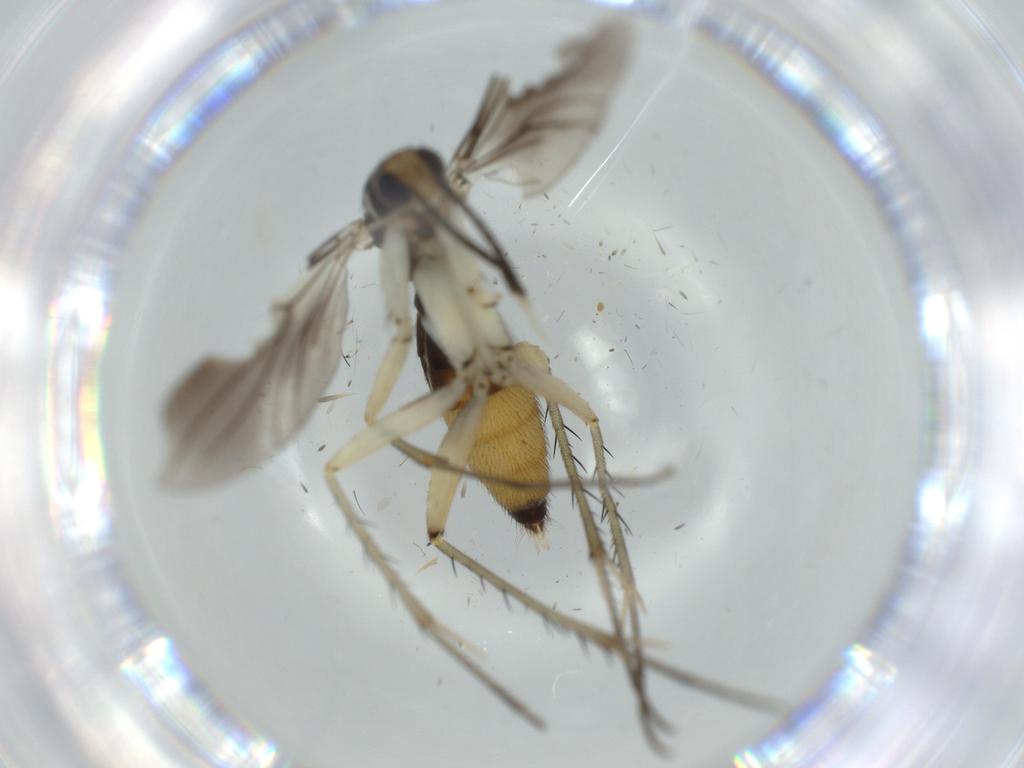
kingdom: Animalia
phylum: Arthropoda
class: Insecta
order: Diptera
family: Mycetophilidae
